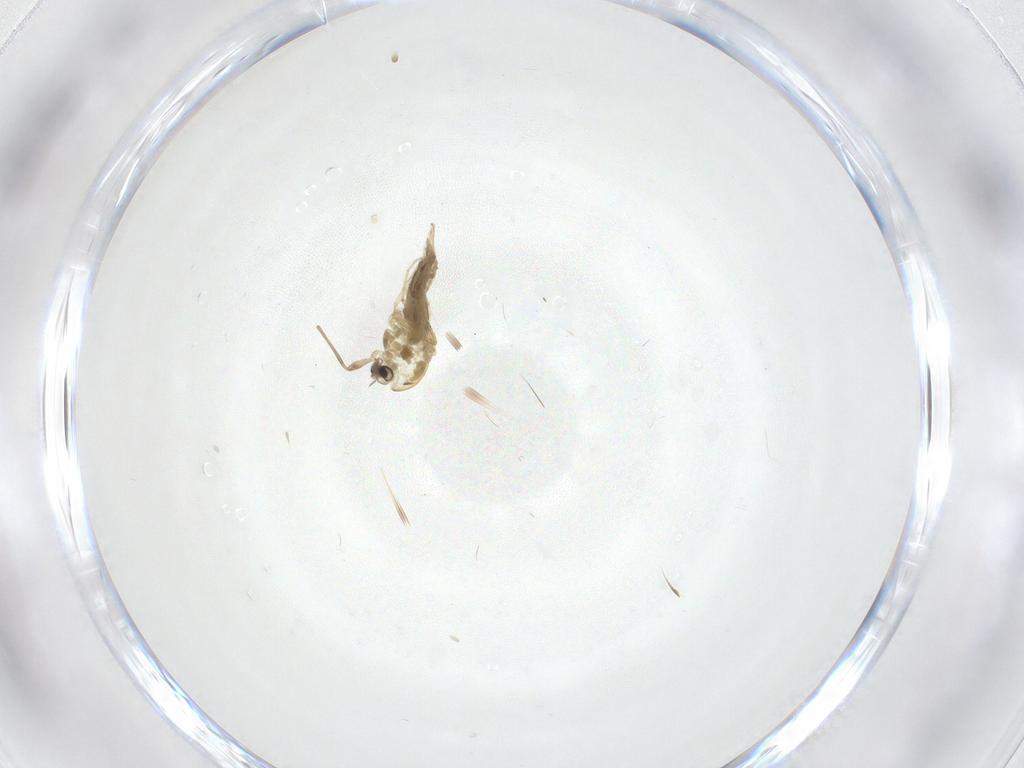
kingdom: Animalia
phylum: Arthropoda
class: Insecta
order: Diptera
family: Chironomidae
